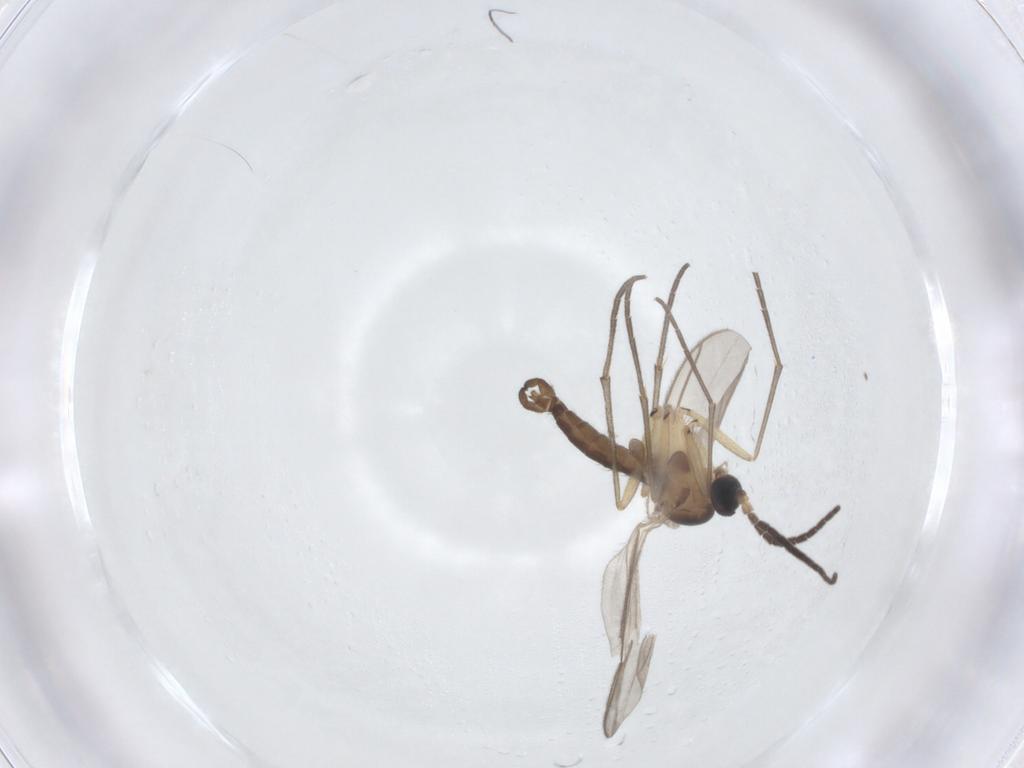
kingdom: Animalia
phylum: Arthropoda
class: Insecta
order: Diptera
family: Sciaridae
